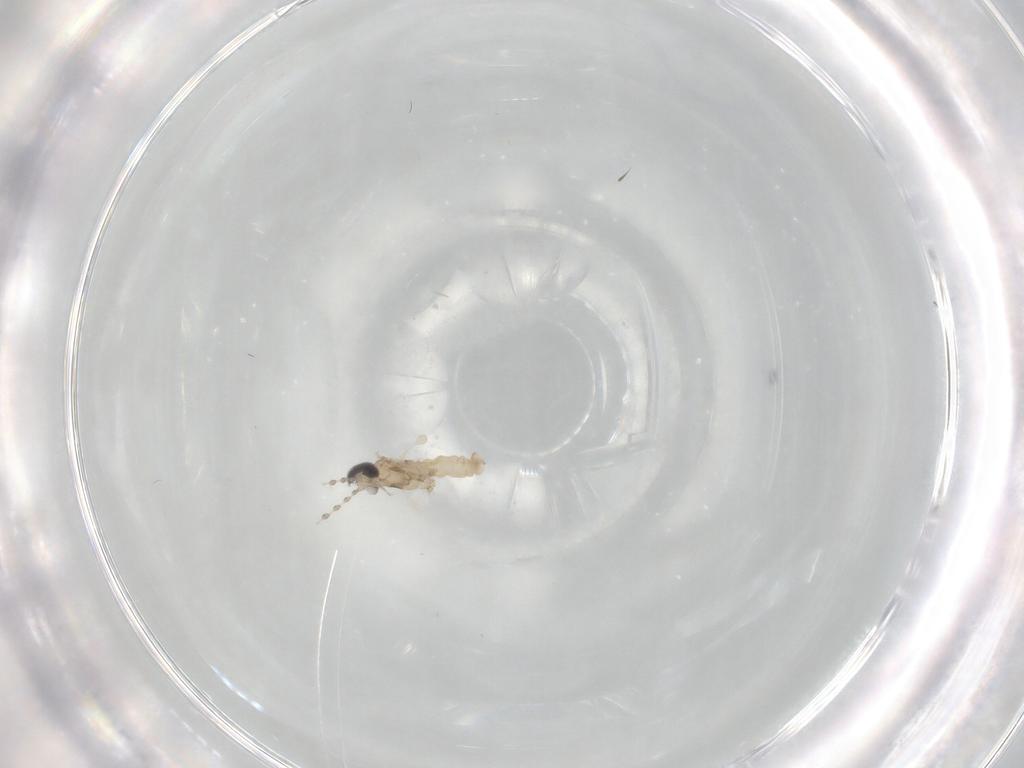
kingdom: Animalia
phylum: Arthropoda
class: Insecta
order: Diptera
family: Cecidomyiidae
